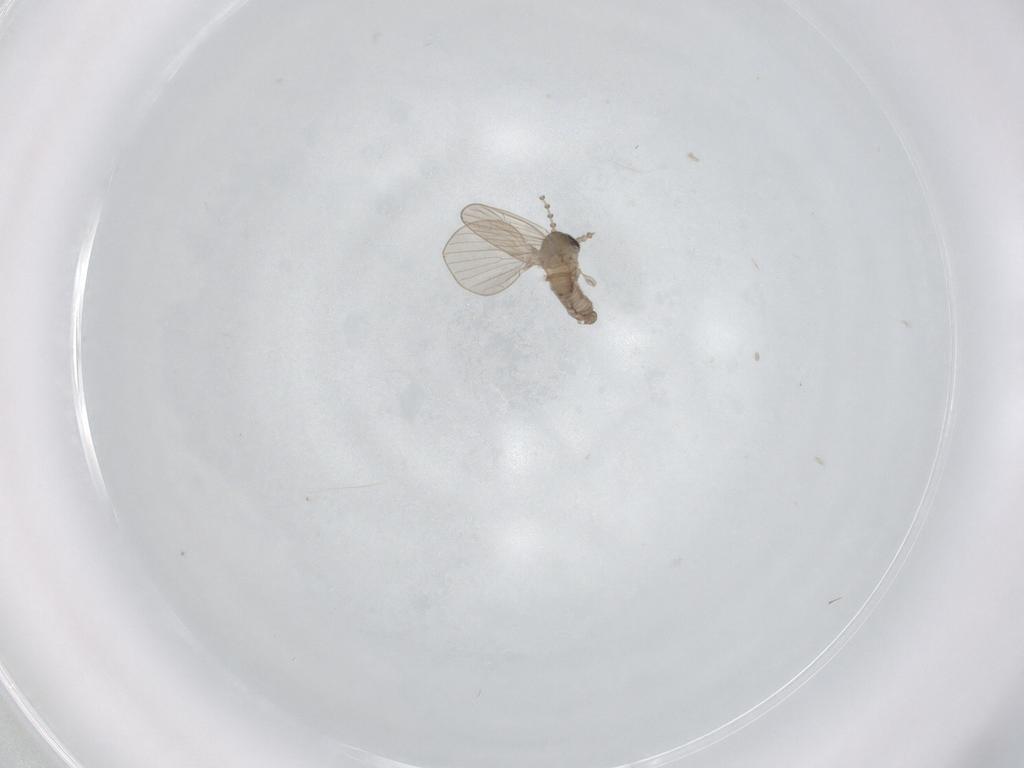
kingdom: Animalia
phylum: Arthropoda
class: Insecta
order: Diptera
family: Psychodidae
